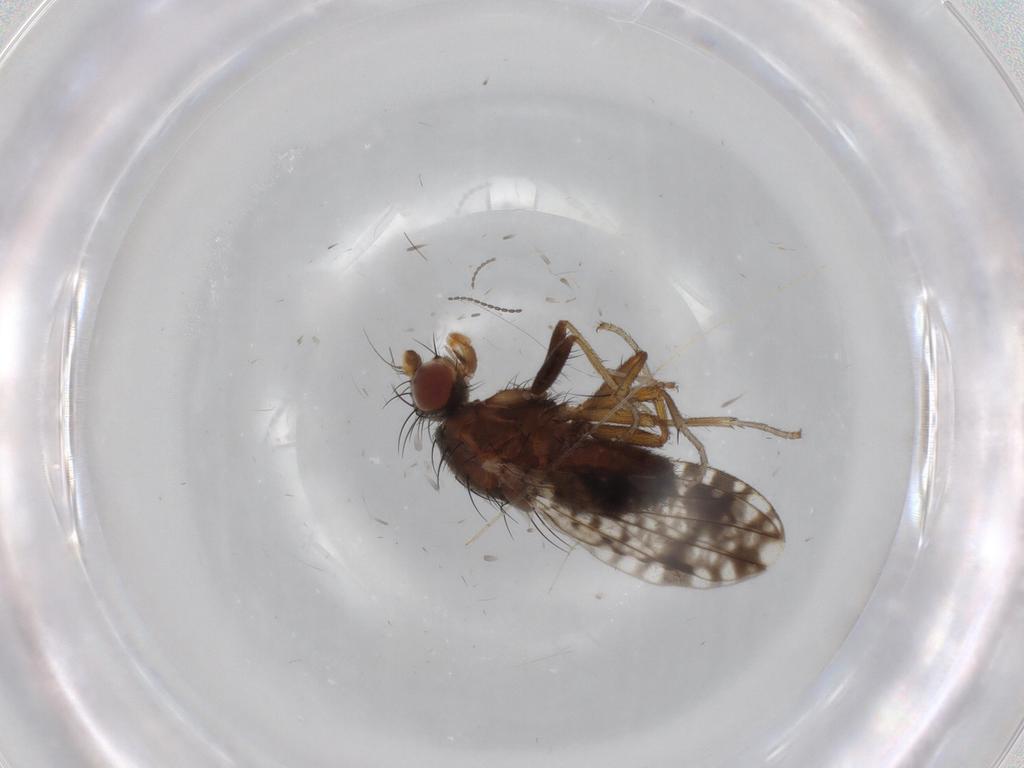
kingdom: Animalia
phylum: Arthropoda
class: Insecta
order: Diptera
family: Tephritidae
